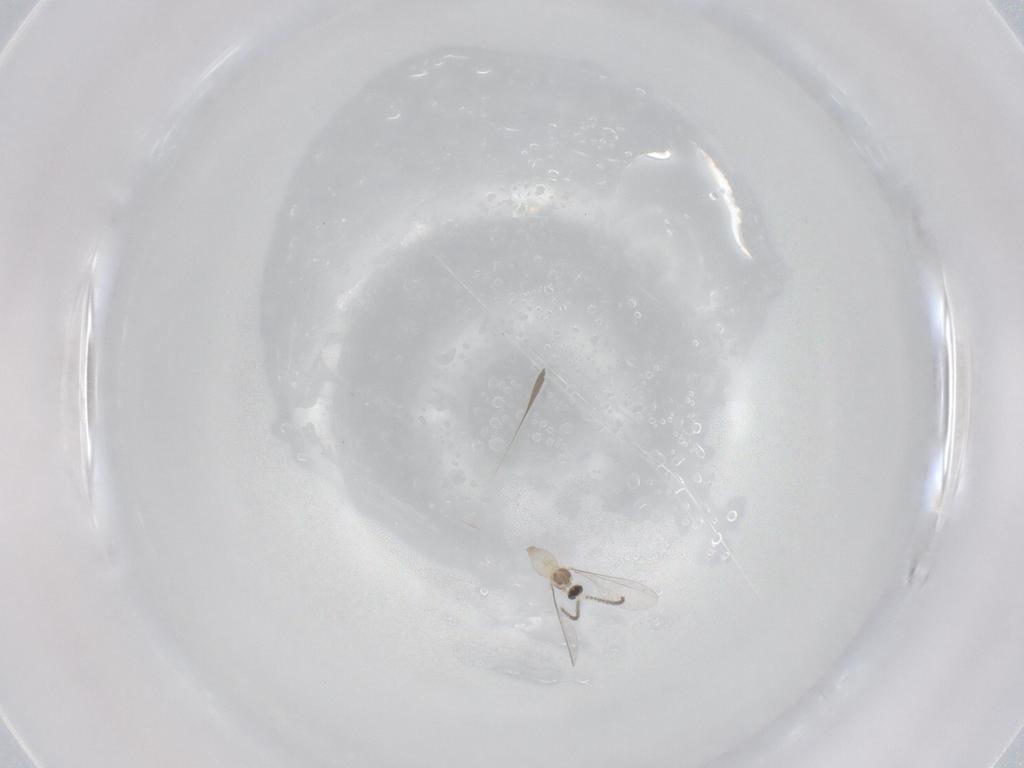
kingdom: Animalia
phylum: Arthropoda
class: Insecta
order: Diptera
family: Cecidomyiidae
